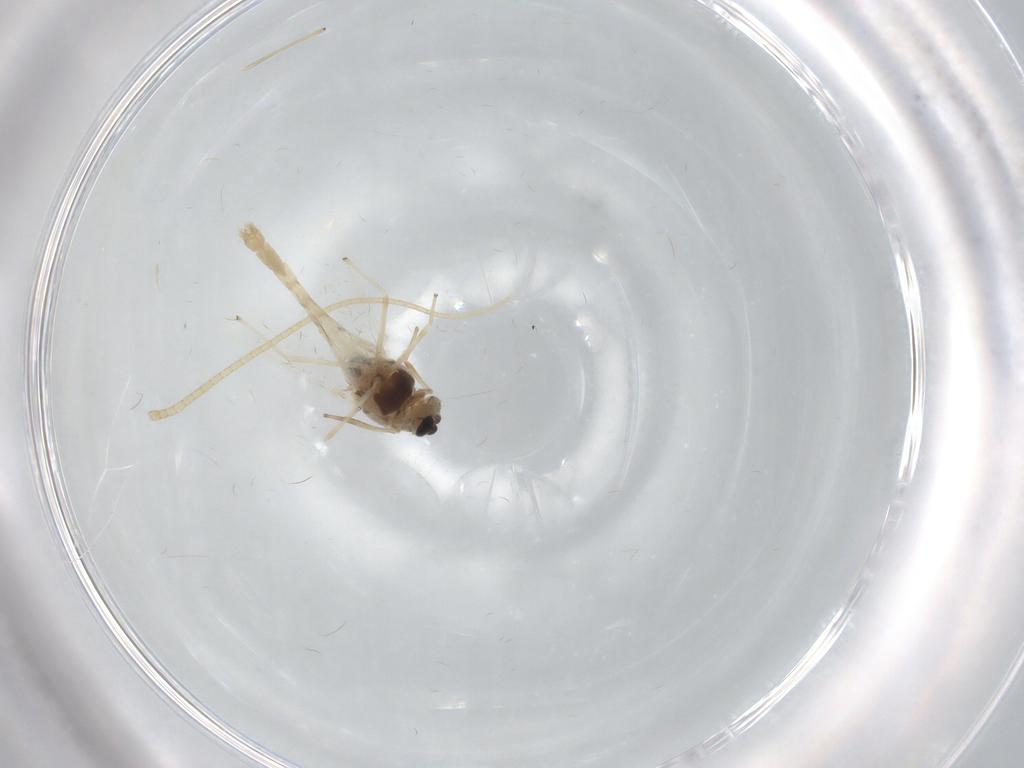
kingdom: Animalia
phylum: Arthropoda
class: Insecta
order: Diptera
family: Chironomidae
